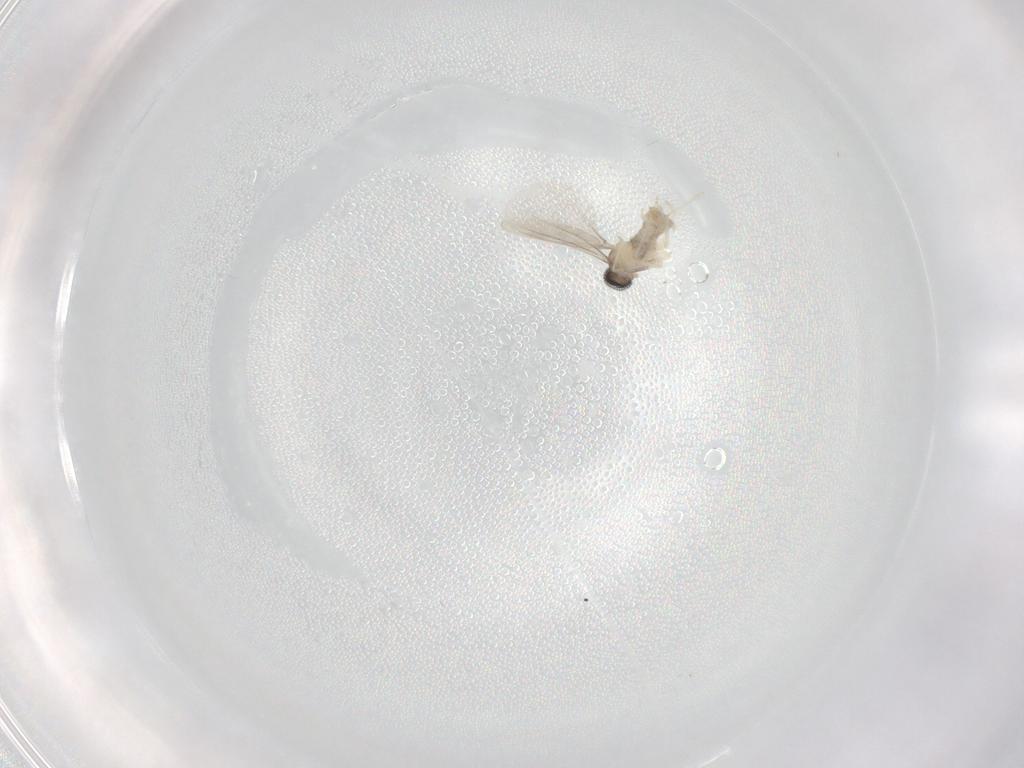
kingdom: Animalia
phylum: Arthropoda
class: Insecta
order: Diptera
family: Cecidomyiidae
